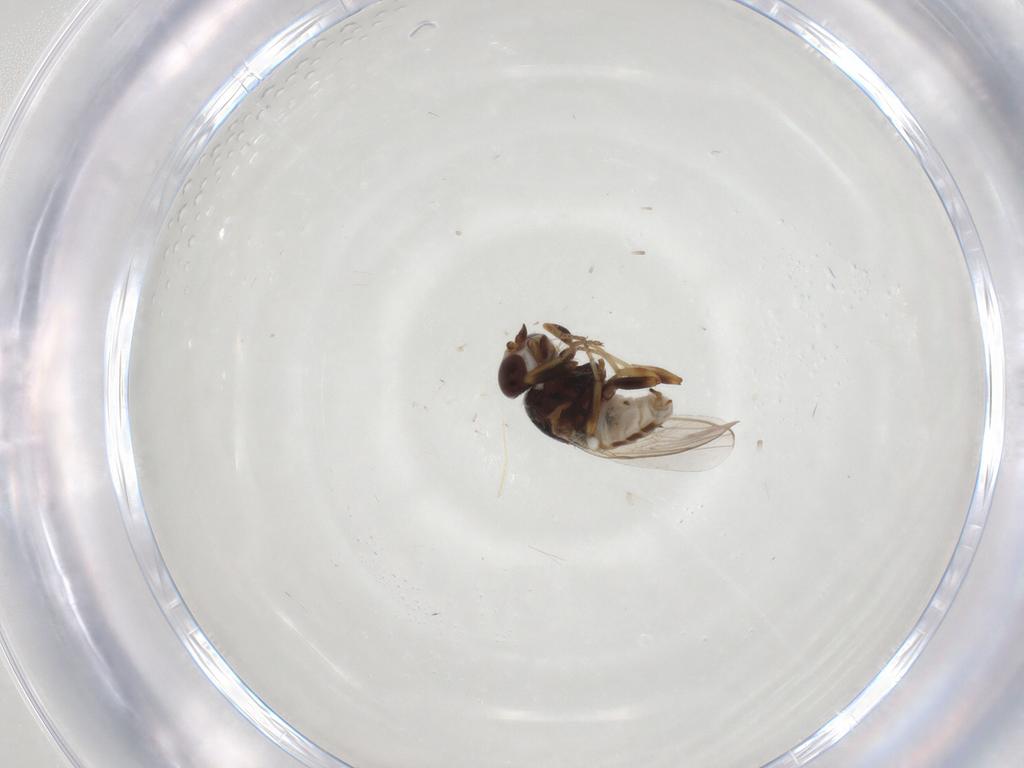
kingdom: Animalia
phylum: Arthropoda
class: Insecta
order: Diptera
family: Chloropidae
